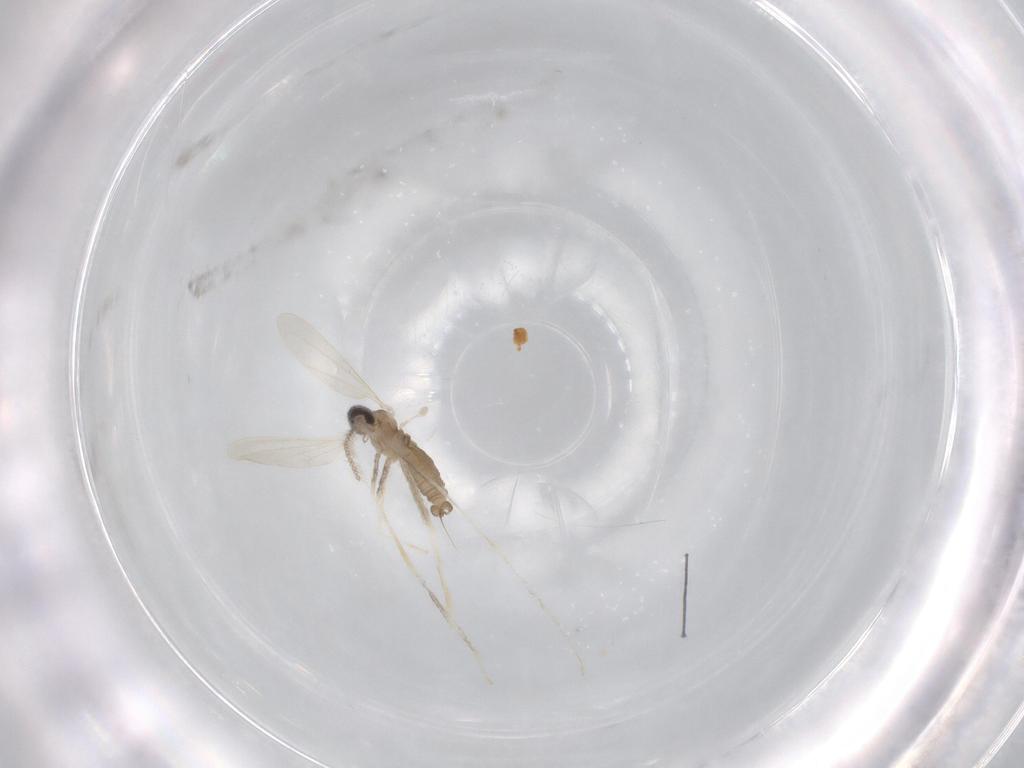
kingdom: Animalia
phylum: Arthropoda
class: Insecta
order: Diptera
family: Cecidomyiidae
